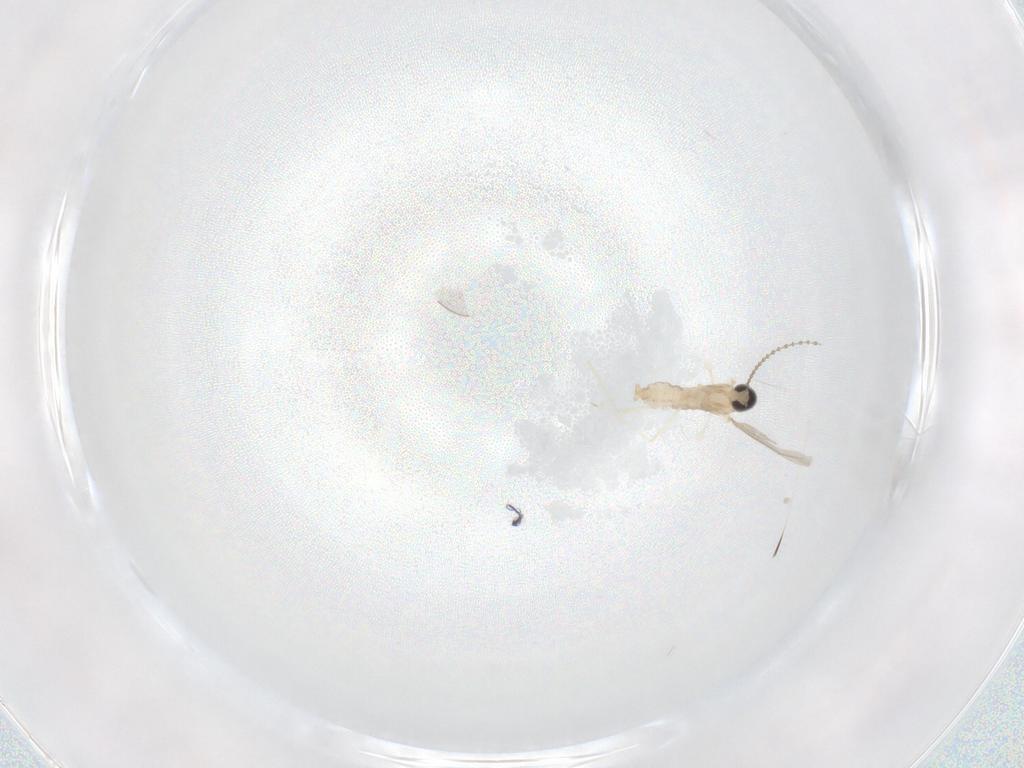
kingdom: Animalia
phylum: Arthropoda
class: Insecta
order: Diptera
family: Cecidomyiidae
